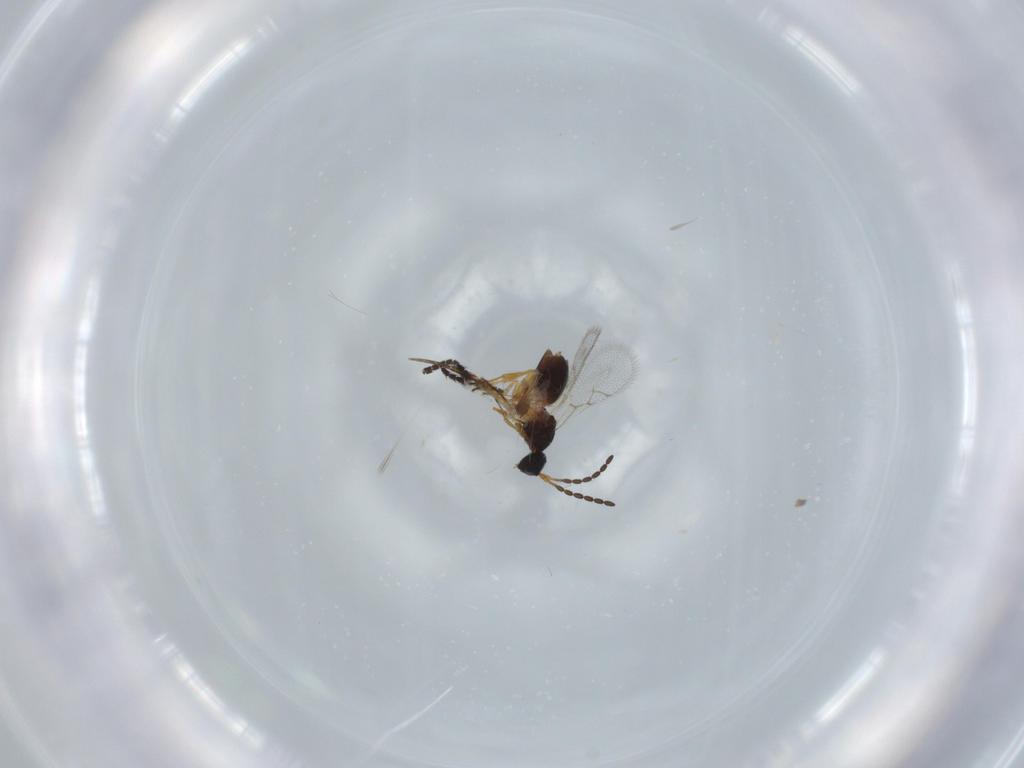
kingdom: Animalia
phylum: Arthropoda
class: Insecta
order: Hymenoptera
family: Figitidae
